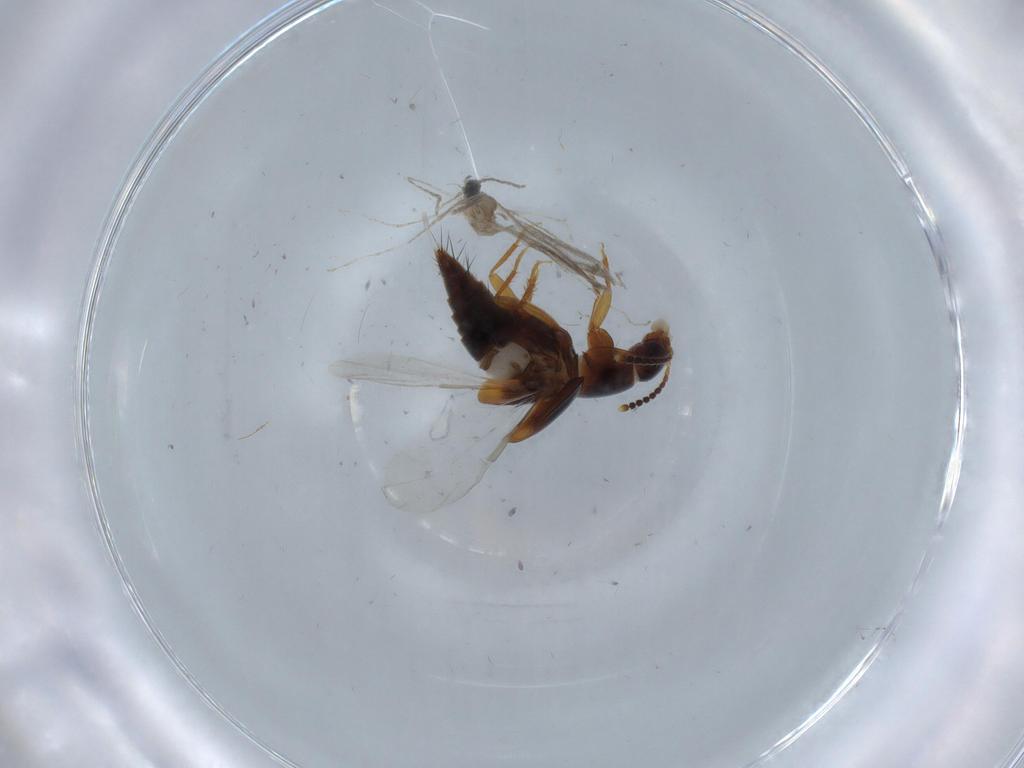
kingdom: Animalia
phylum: Arthropoda
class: Insecta
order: Diptera
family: Cecidomyiidae
